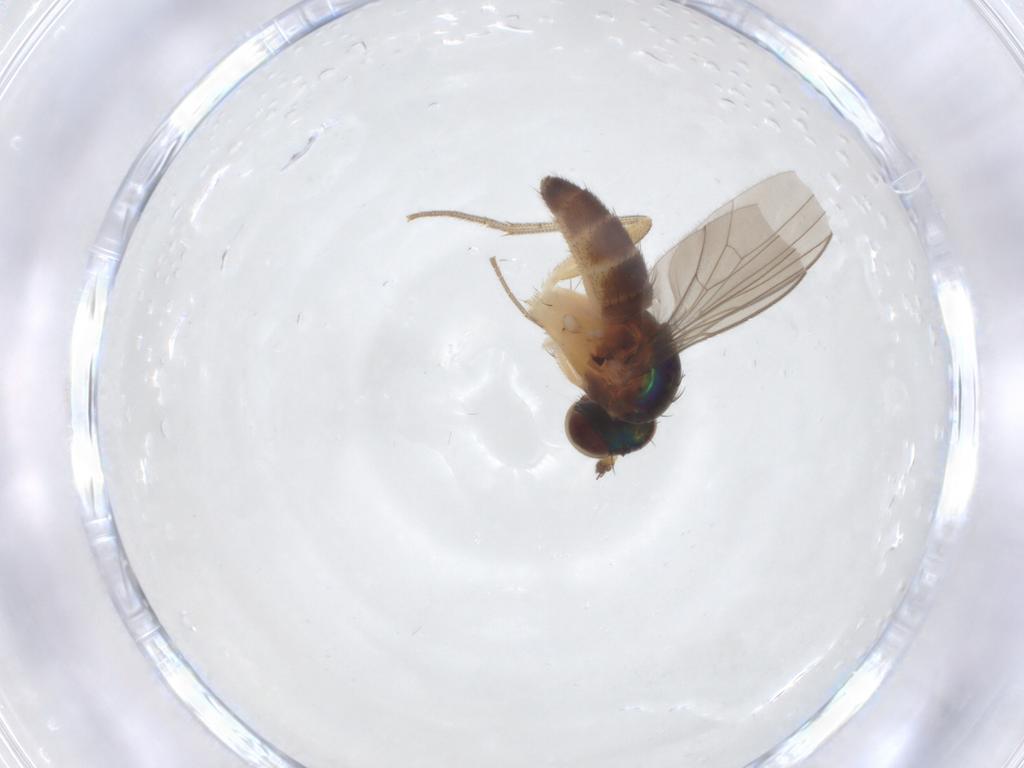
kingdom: Animalia
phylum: Arthropoda
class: Insecta
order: Diptera
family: Dolichopodidae
